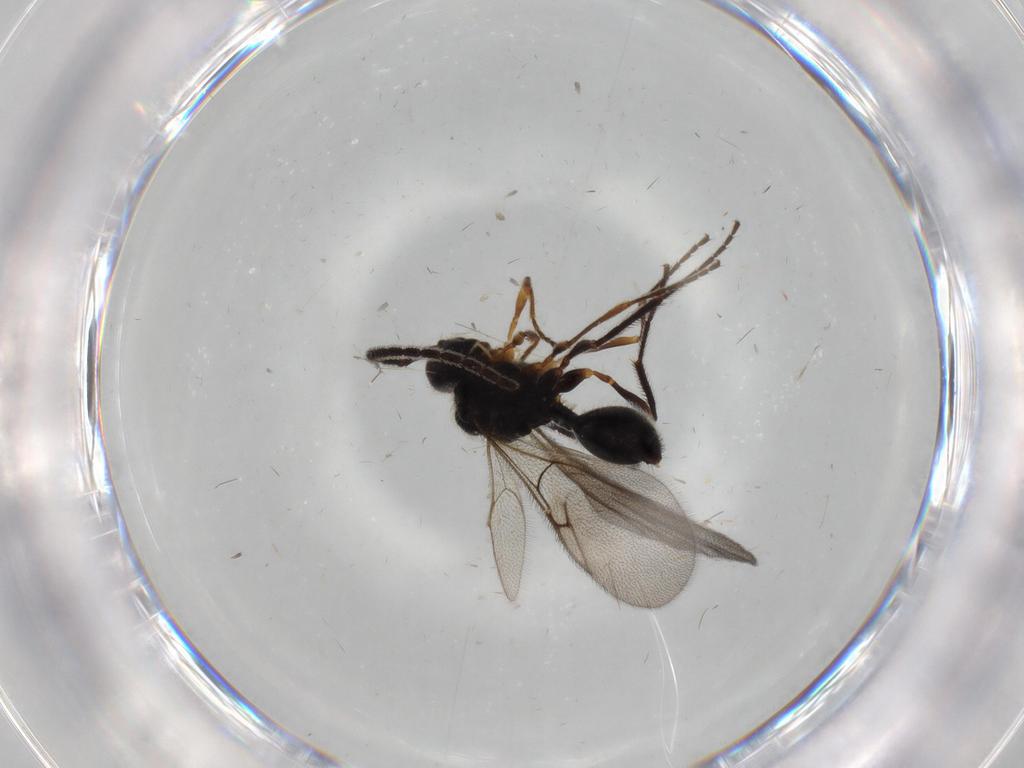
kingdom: Animalia
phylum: Arthropoda
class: Insecta
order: Hymenoptera
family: Diapriidae
